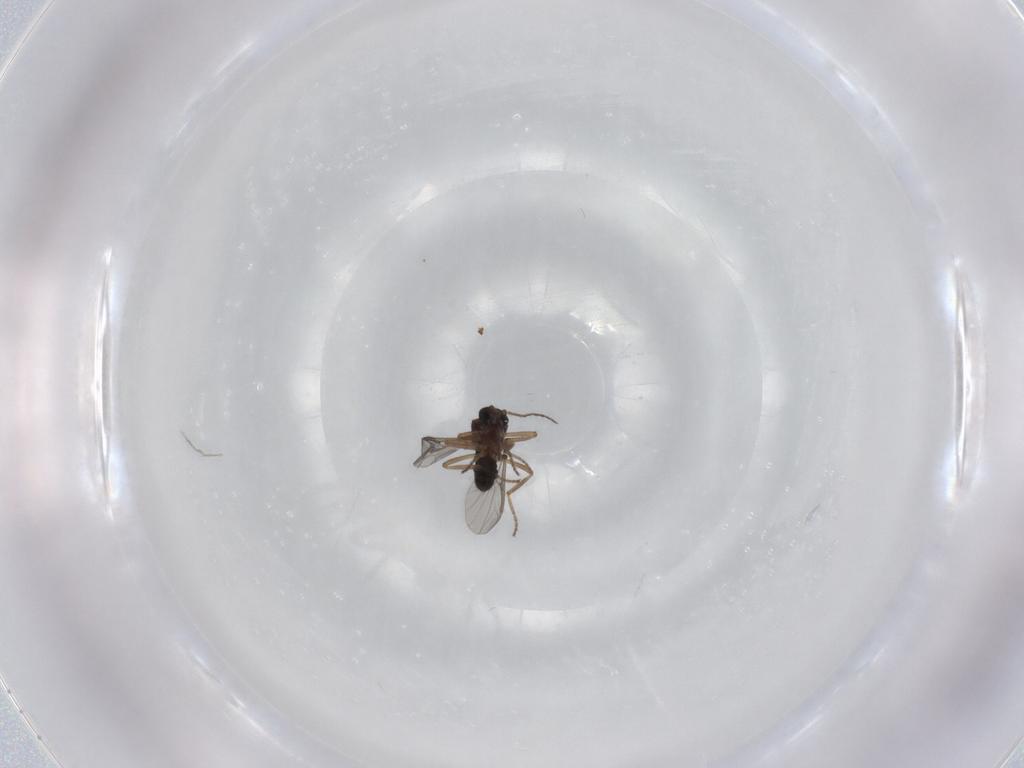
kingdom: Animalia
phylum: Arthropoda
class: Insecta
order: Diptera
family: Ceratopogonidae
